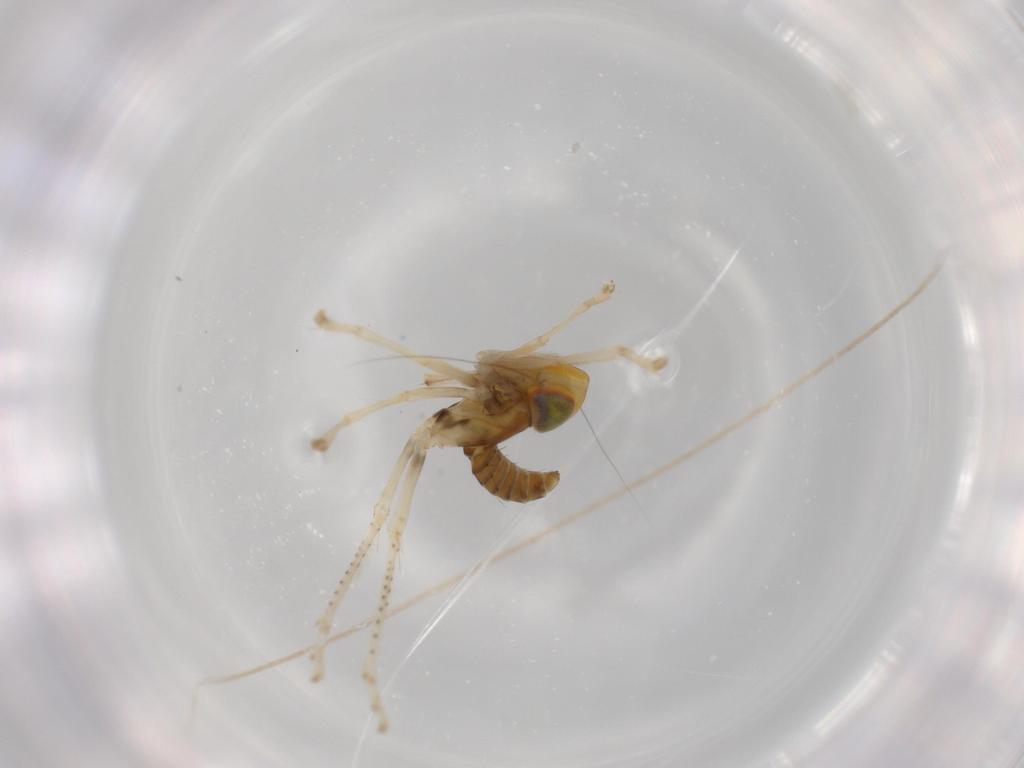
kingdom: Animalia
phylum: Arthropoda
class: Insecta
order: Hemiptera
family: Cicadellidae
